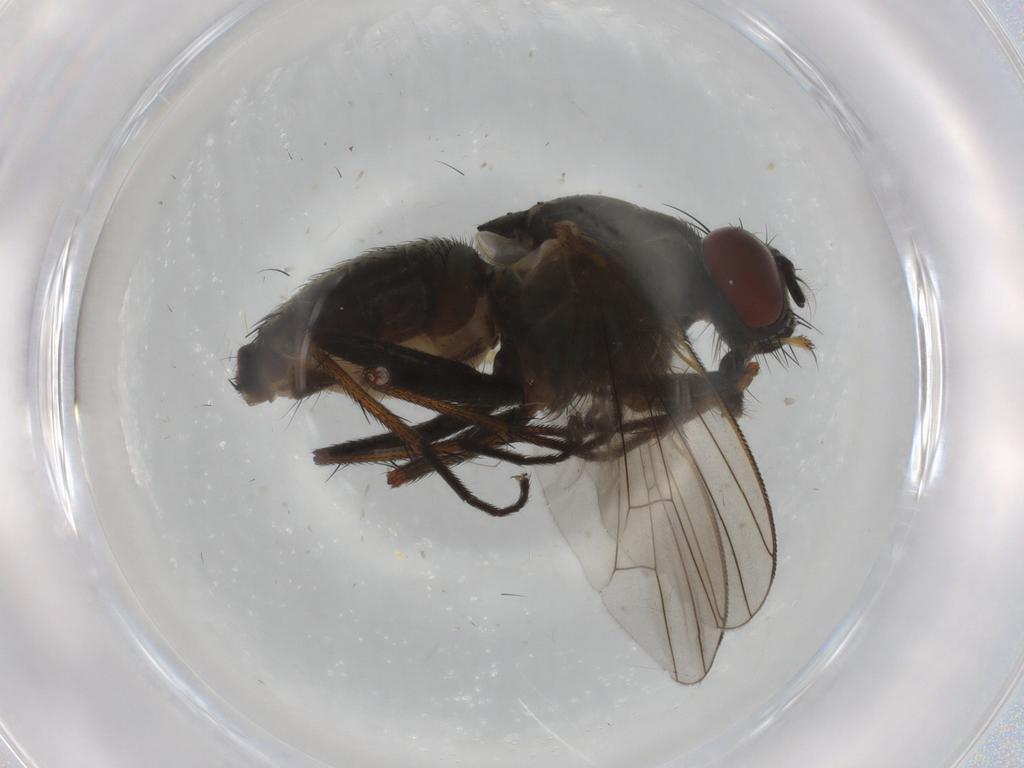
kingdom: Animalia
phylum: Arthropoda
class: Insecta
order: Diptera
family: Muscidae
